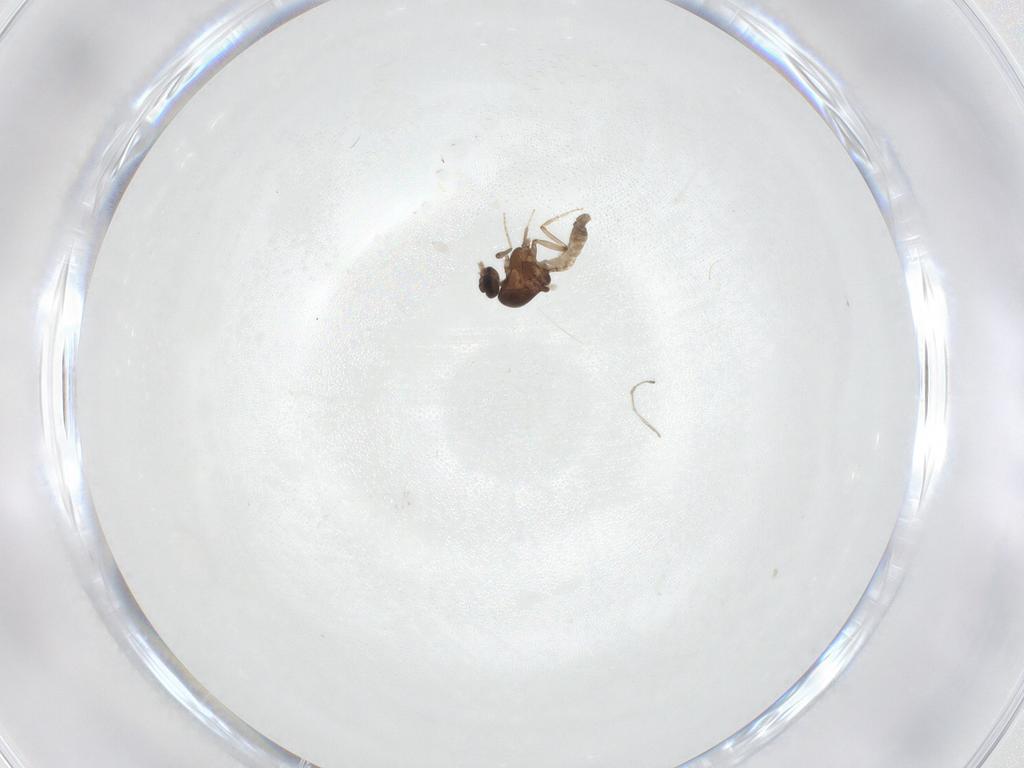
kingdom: Animalia
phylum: Arthropoda
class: Insecta
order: Diptera
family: Ceratopogonidae
